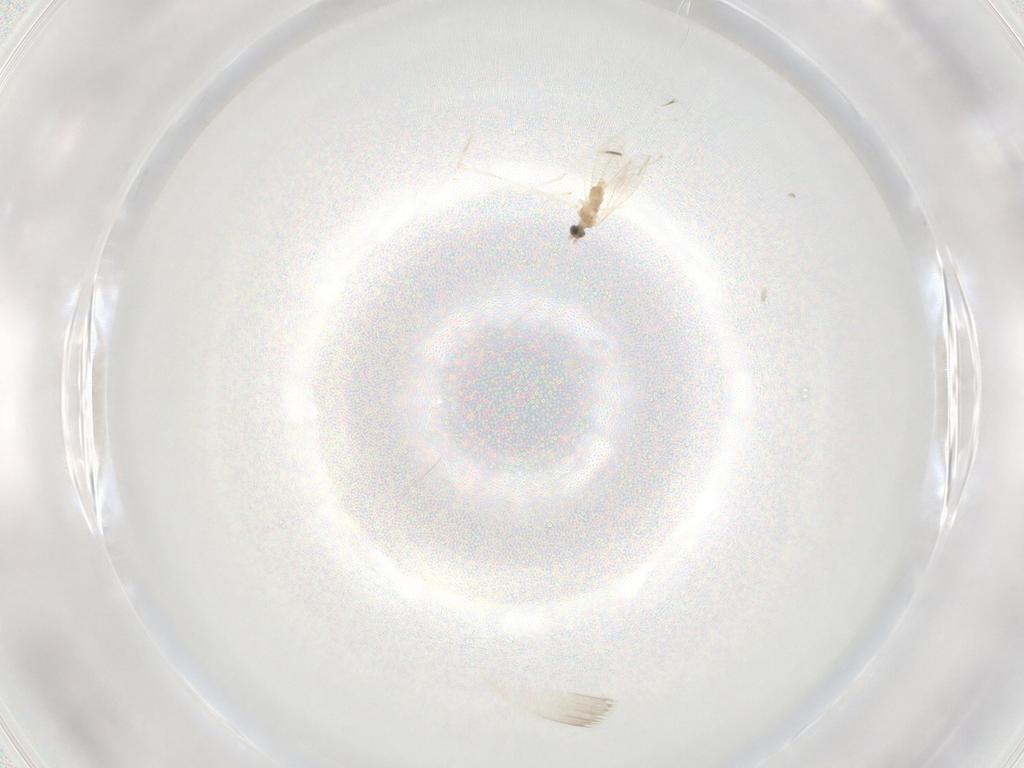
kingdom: Animalia
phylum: Arthropoda
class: Insecta
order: Diptera
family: Cecidomyiidae
